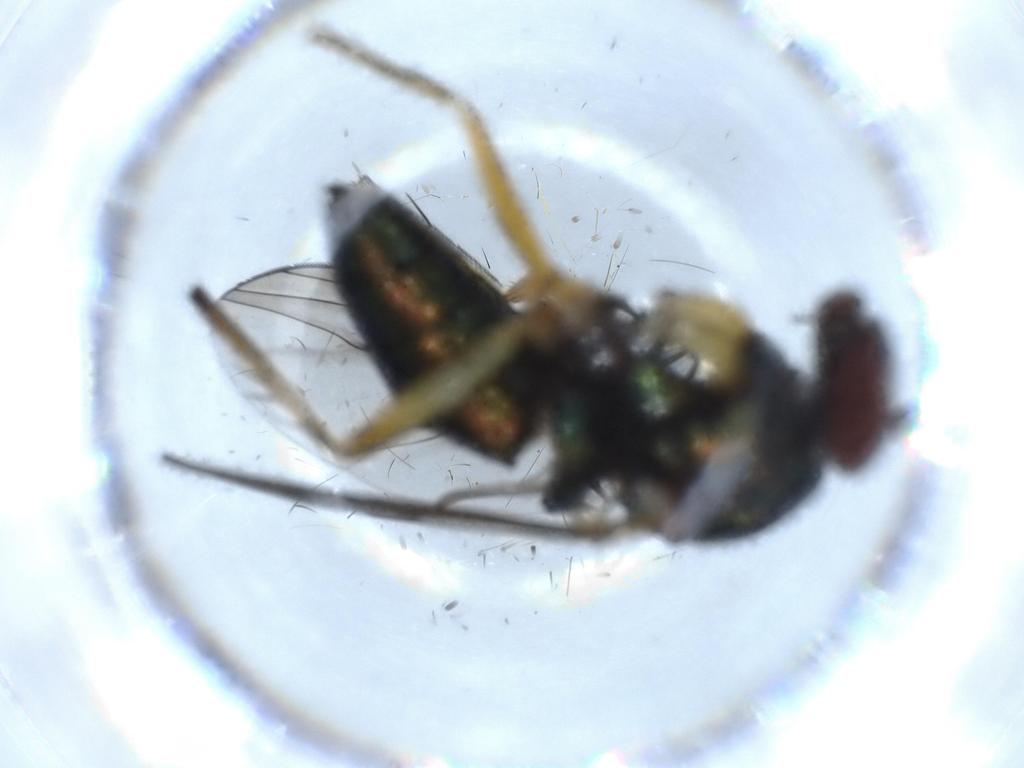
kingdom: Animalia
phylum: Arthropoda
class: Insecta
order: Diptera
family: Dolichopodidae
